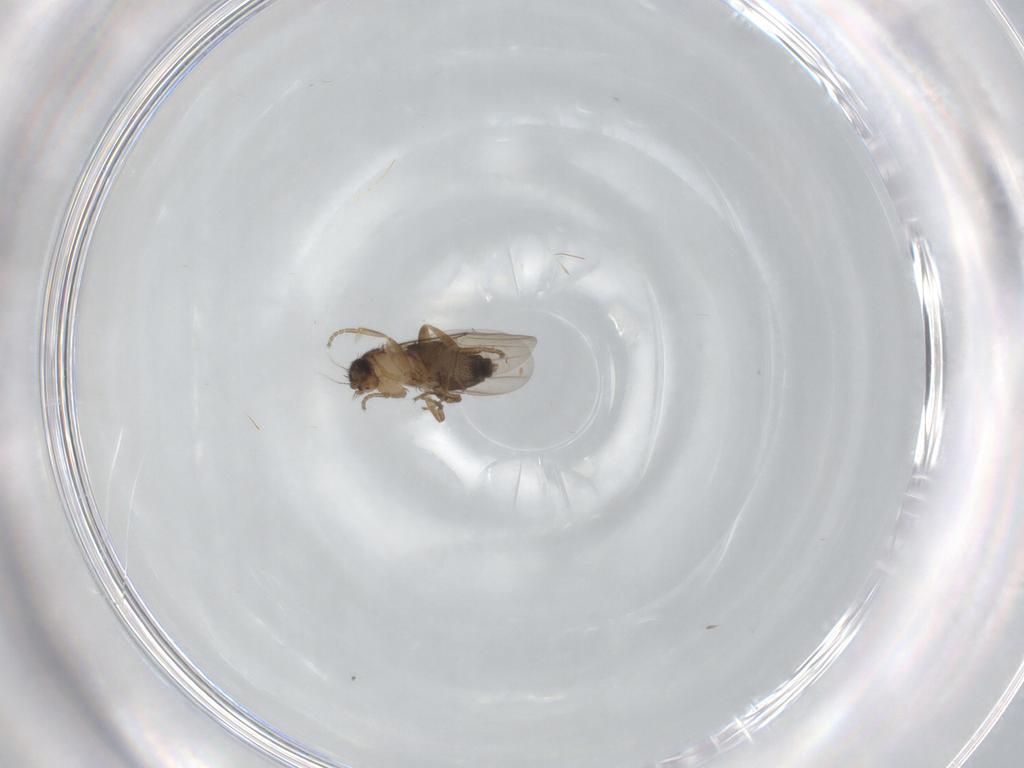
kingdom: Animalia
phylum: Arthropoda
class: Insecta
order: Diptera
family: Phoridae
